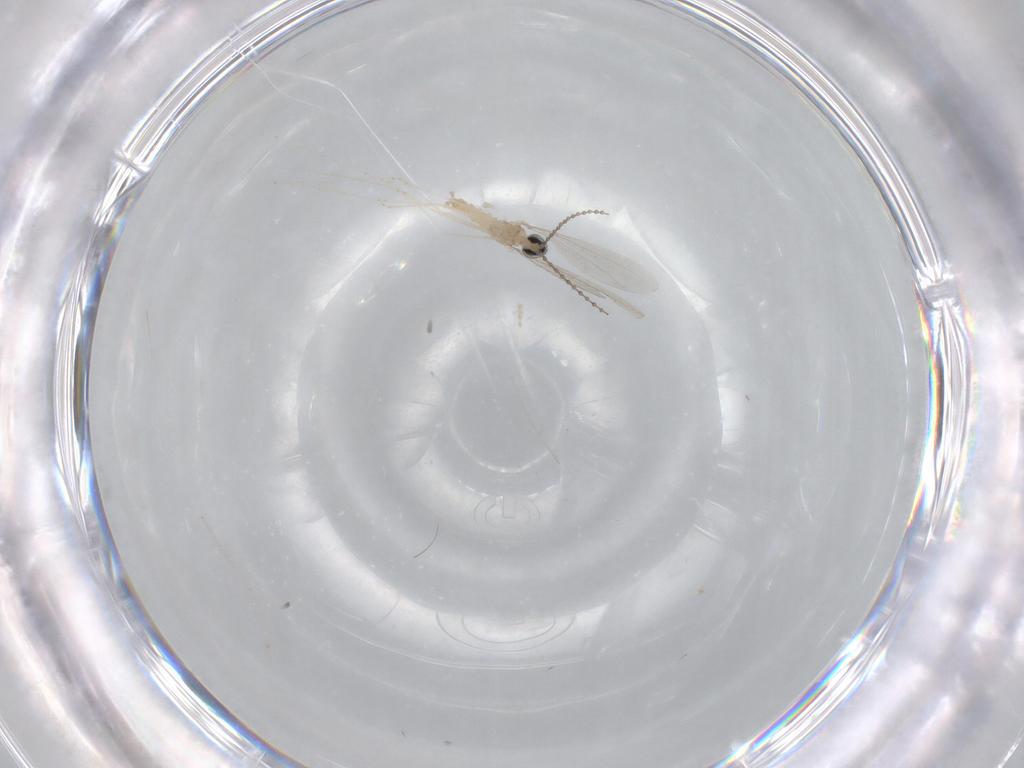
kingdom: Animalia
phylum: Arthropoda
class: Insecta
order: Diptera
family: Cecidomyiidae
